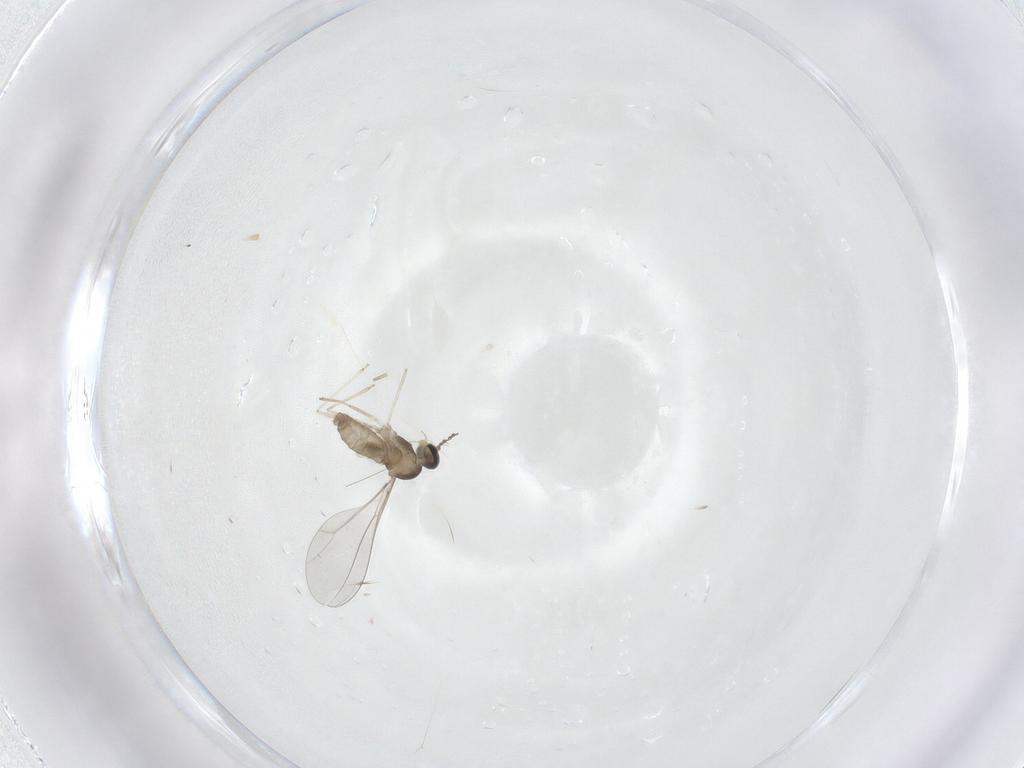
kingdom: Animalia
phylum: Arthropoda
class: Insecta
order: Diptera
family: Cecidomyiidae
